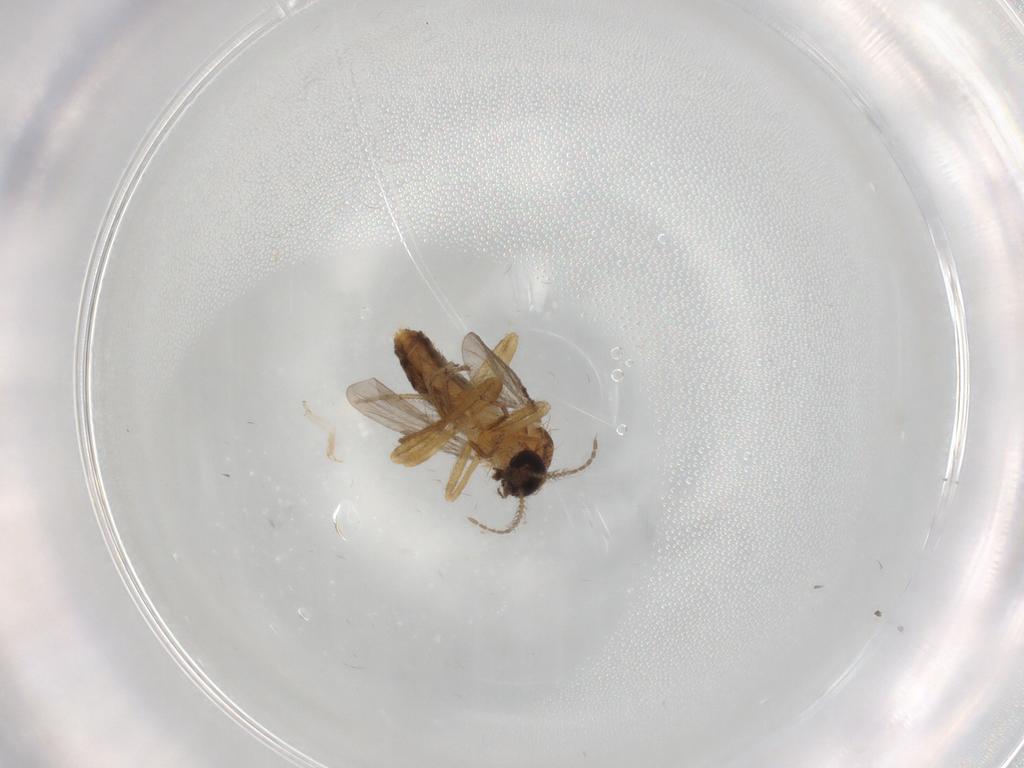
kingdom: Animalia
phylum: Arthropoda
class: Insecta
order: Diptera
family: Ceratopogonidae
